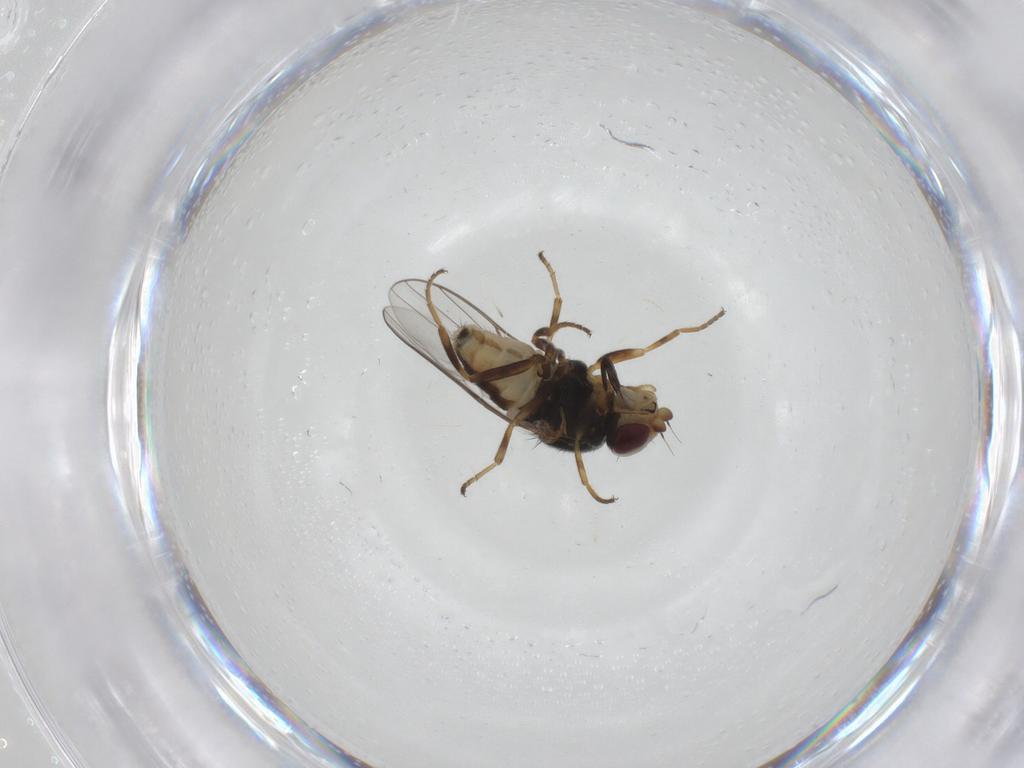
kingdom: Animalia
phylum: Arthropoda
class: Insecta
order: Diptera
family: Chloropidae
